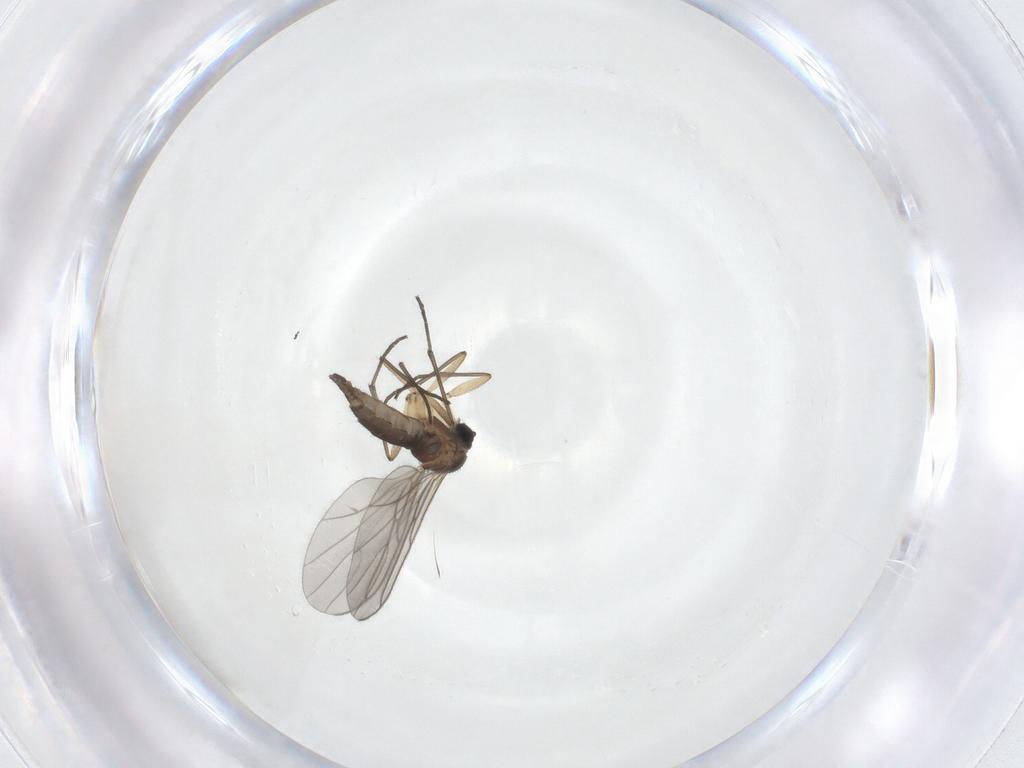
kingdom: Animalia
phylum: Arthropoda
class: Insecta
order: Diptera
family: Sciaridae
